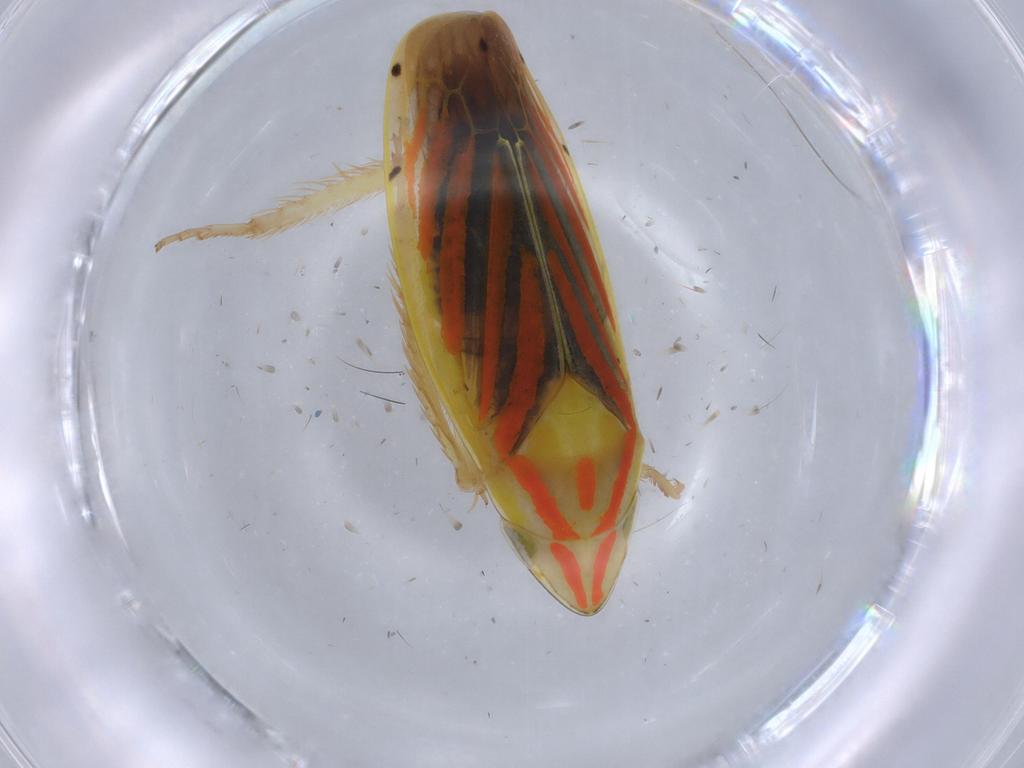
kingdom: Animalia
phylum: Arthropoda
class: Insecta
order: Hemiptera
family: Cicadellidae
